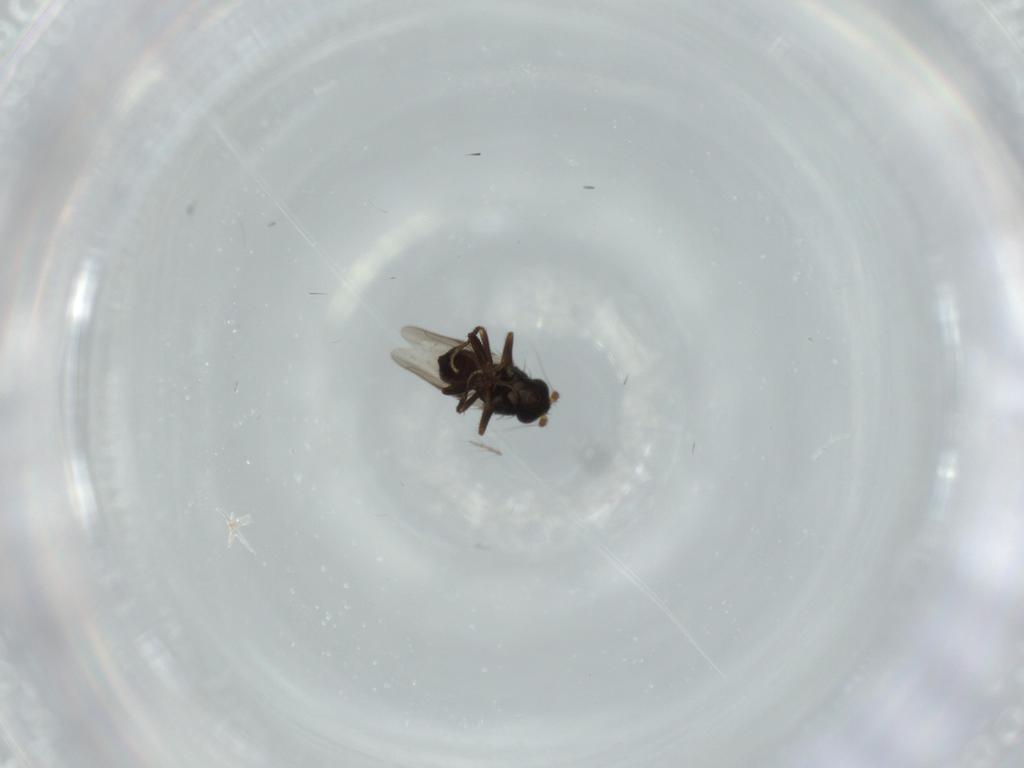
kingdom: Animalia
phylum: Arthropoda
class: Insecta
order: Diptera
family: Sphaeroceridae
